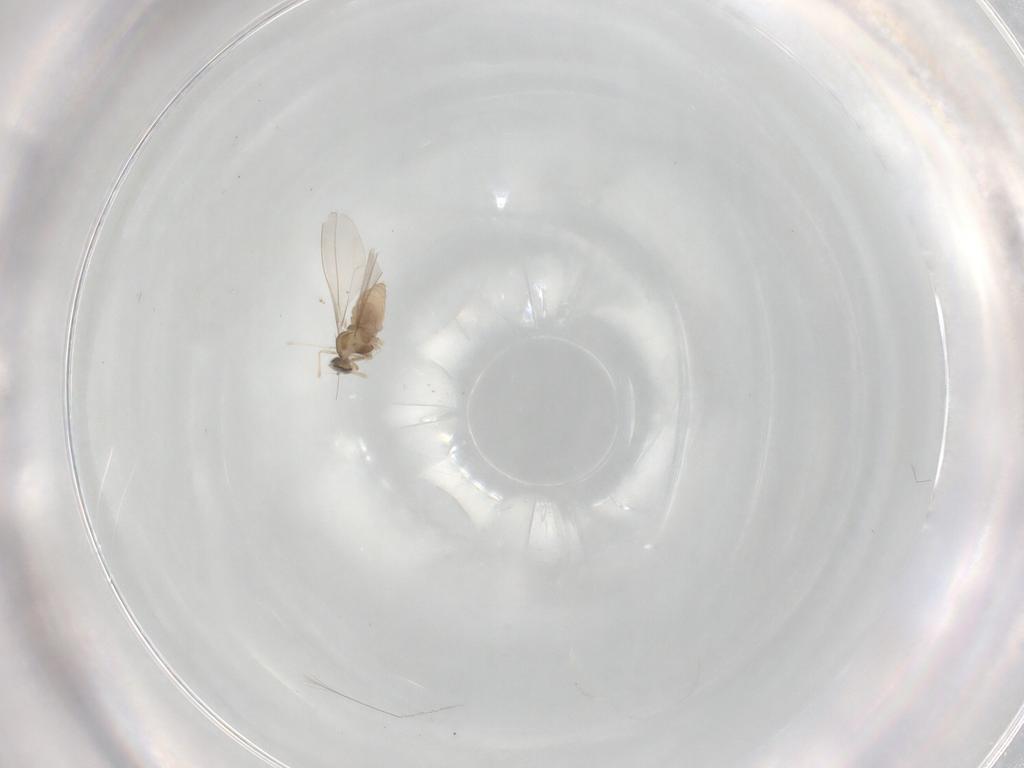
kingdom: Animalia
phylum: Arthropoda
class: Insecta
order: Diptera
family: Cecidomyiidae
